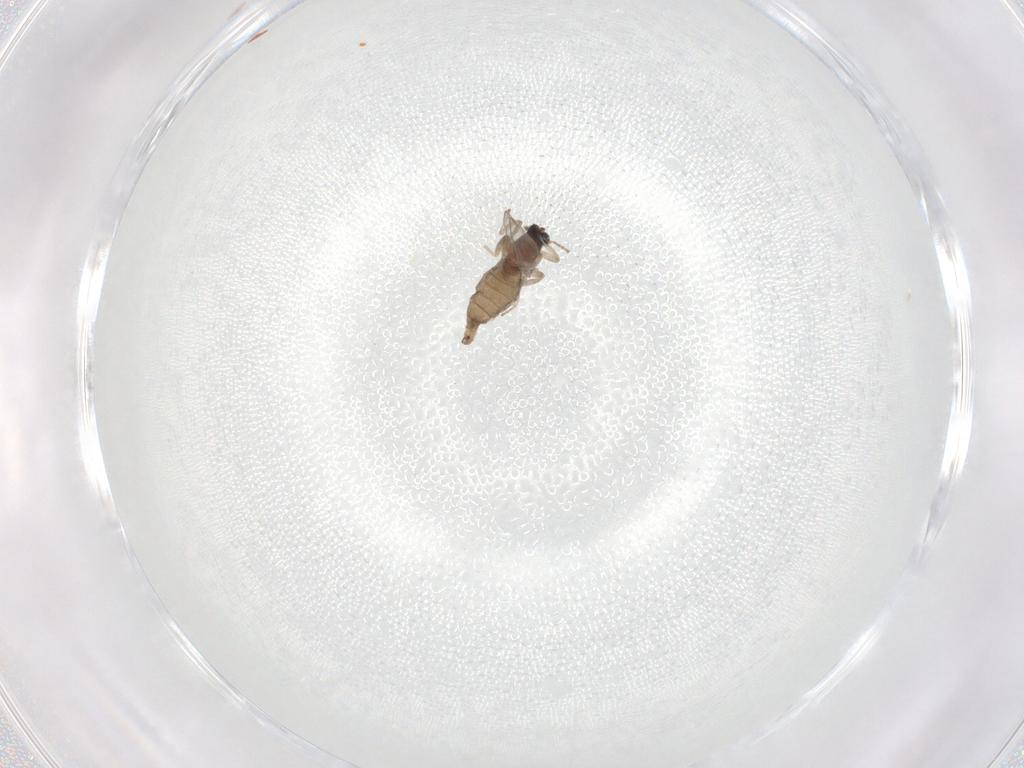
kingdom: Animalia
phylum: Arthropoda
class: Insecta
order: Diptera
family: Cecidomyiidae
